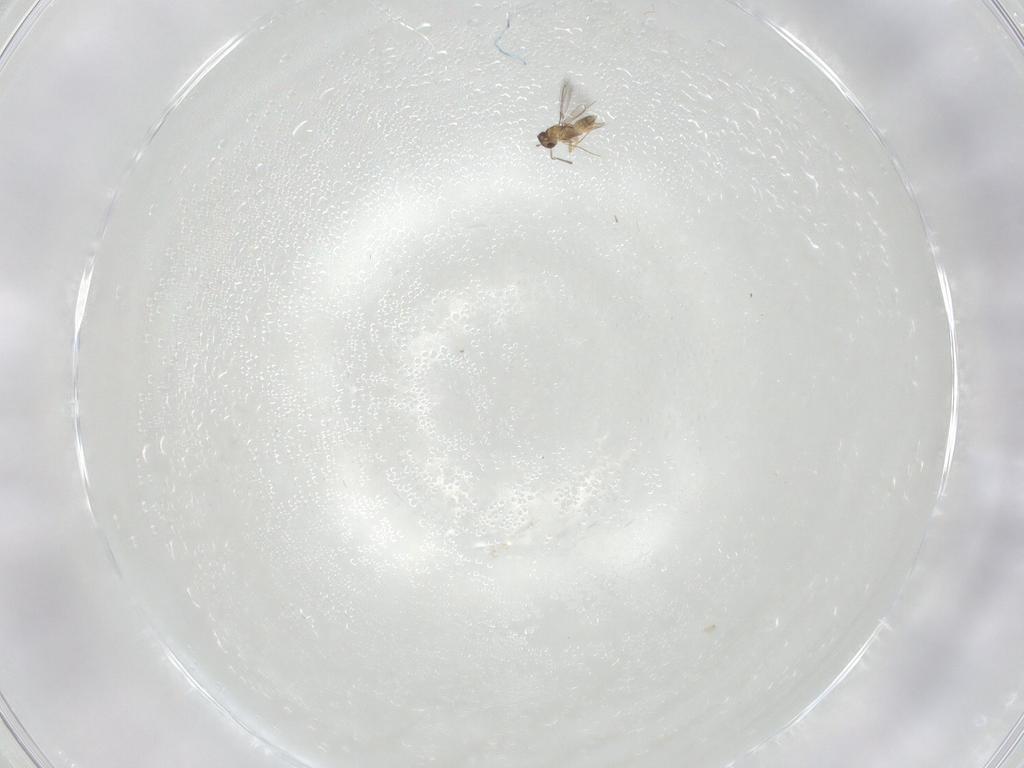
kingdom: Animalia
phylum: Arthropoda
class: Insecta
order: Hymenoptera
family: Mymaridae
